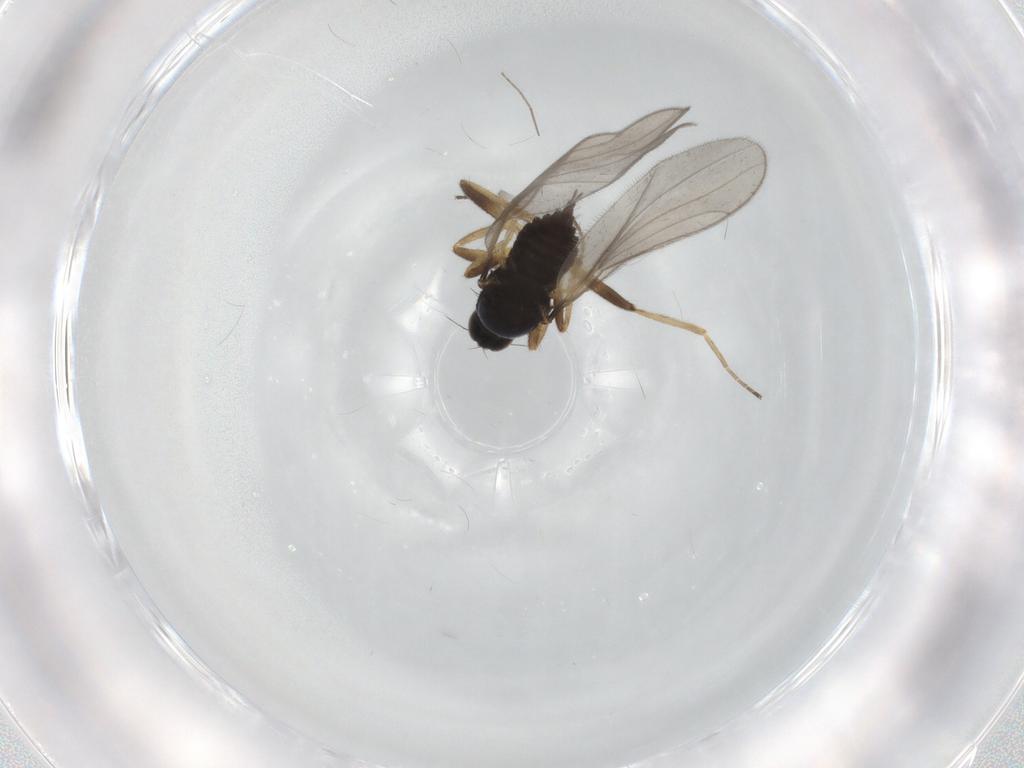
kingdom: Animalia
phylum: Arthropoda
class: Insecta
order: Diptera
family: Hybotidae
